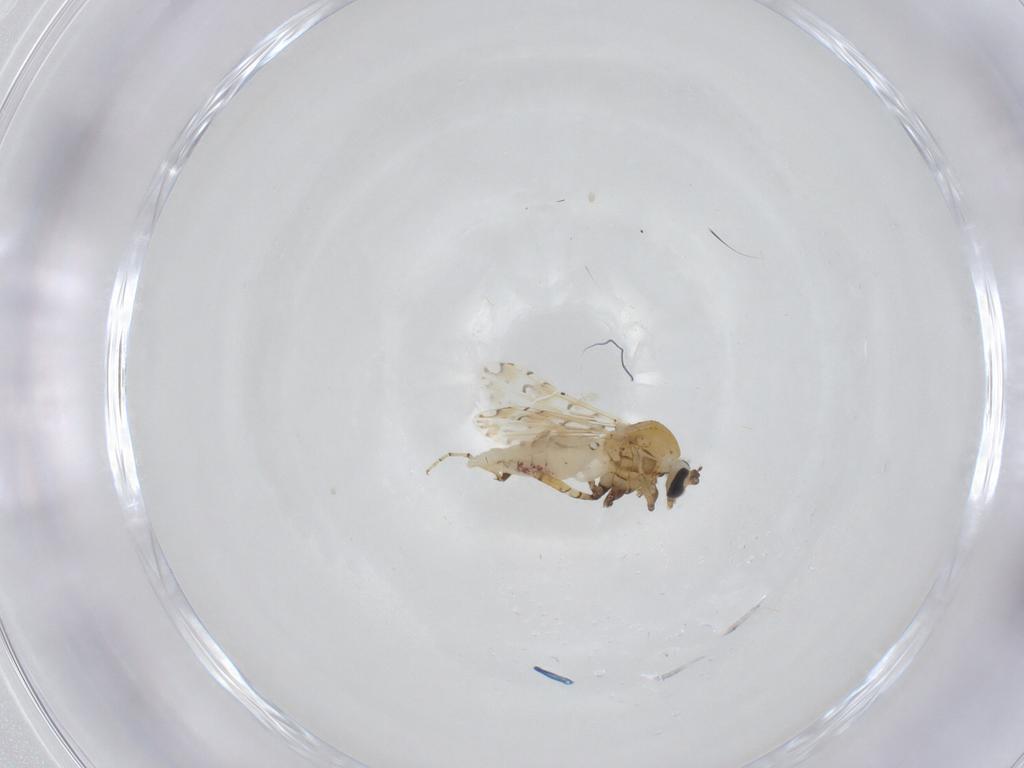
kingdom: Animalia
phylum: Arthropoda
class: Insecta
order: Diptera
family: Ceratopogonidae
